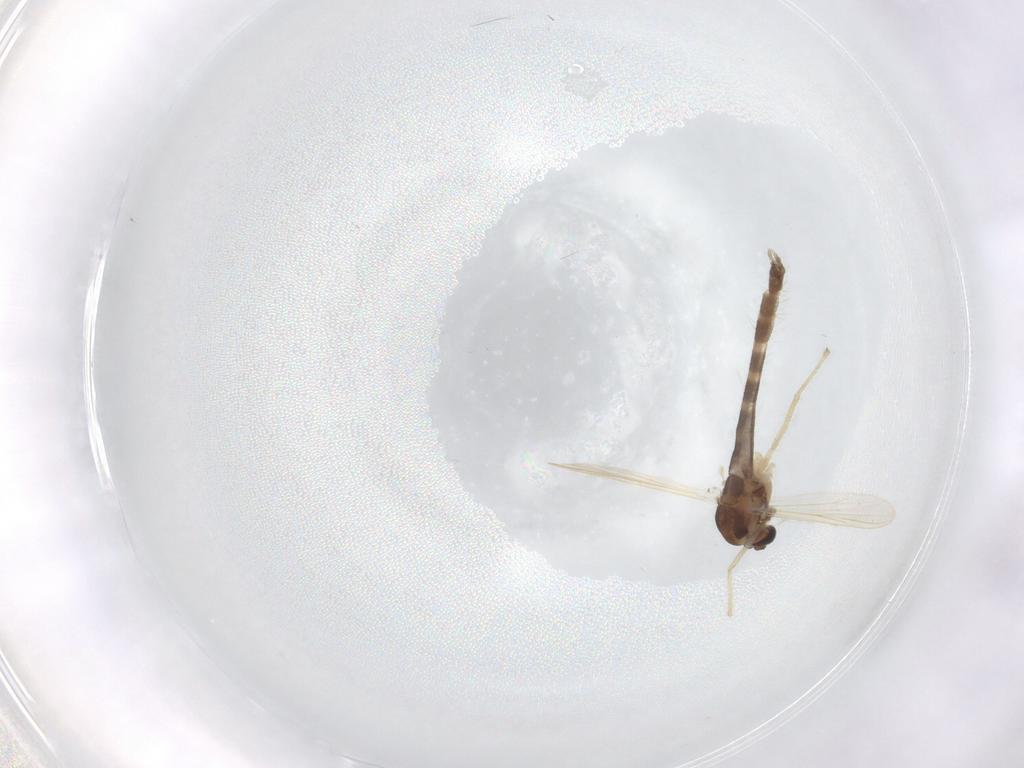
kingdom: Animalia
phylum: Arthropoda
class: Insecta
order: Diptera
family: Chironomidae
